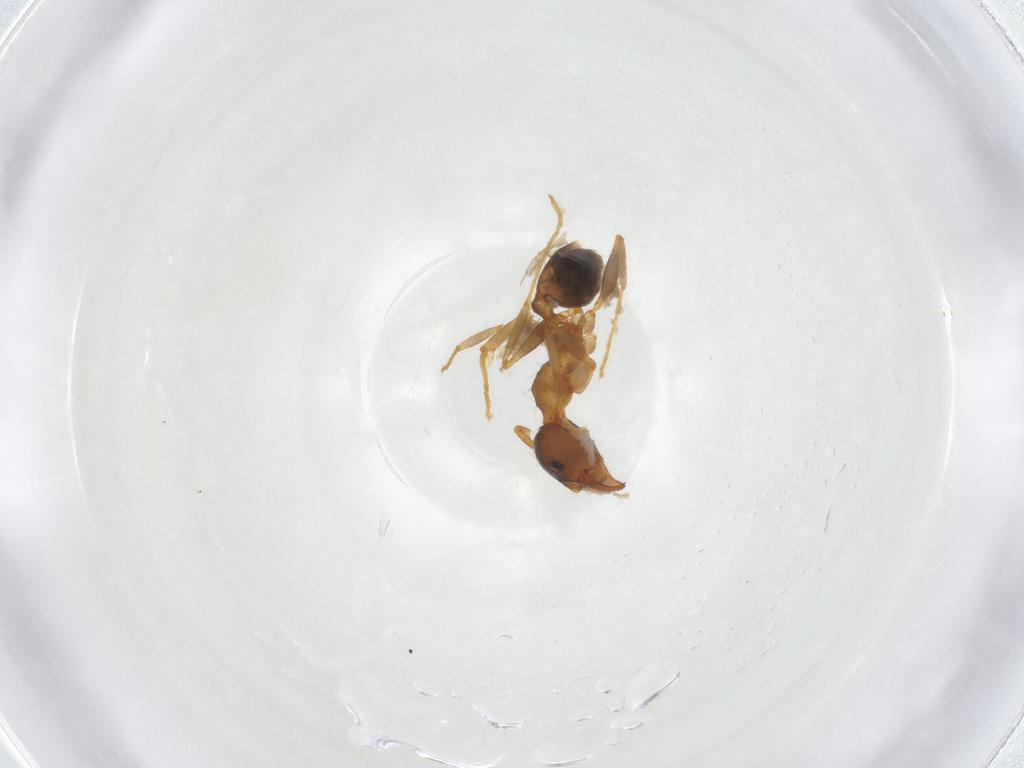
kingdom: Animalia
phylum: Arthropoda
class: Insecta
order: Hymenoptera
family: Formicidae
